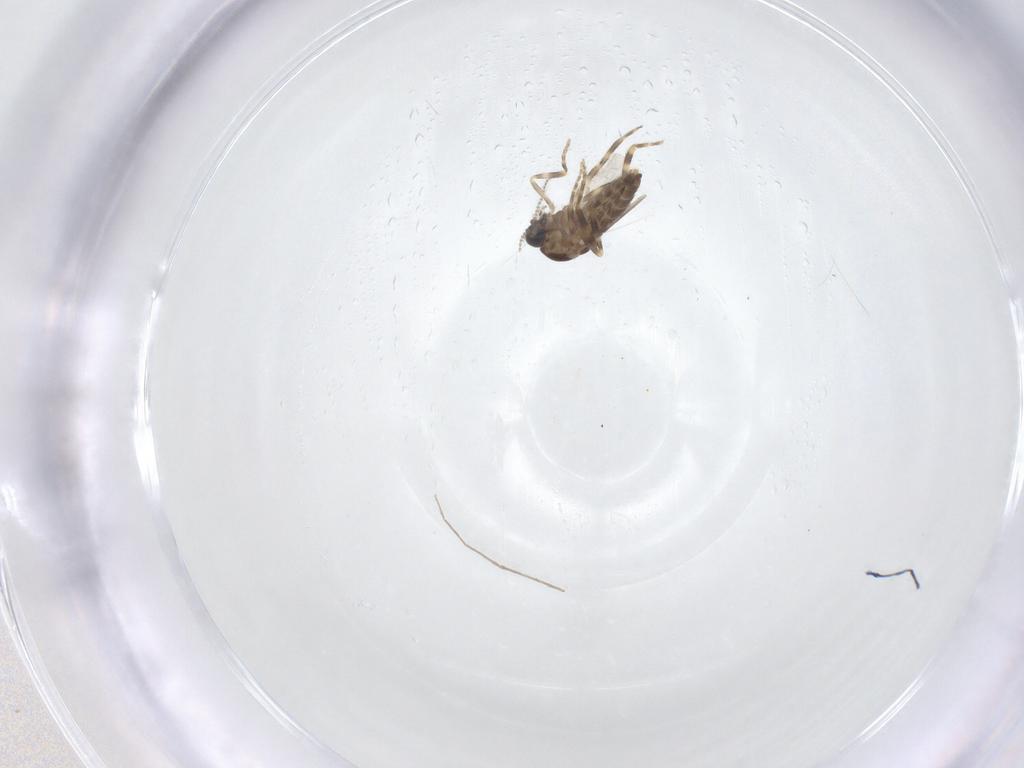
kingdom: Animalia
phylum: Arthropoda
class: Insecta
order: Diptera
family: Ceratopogonidae
